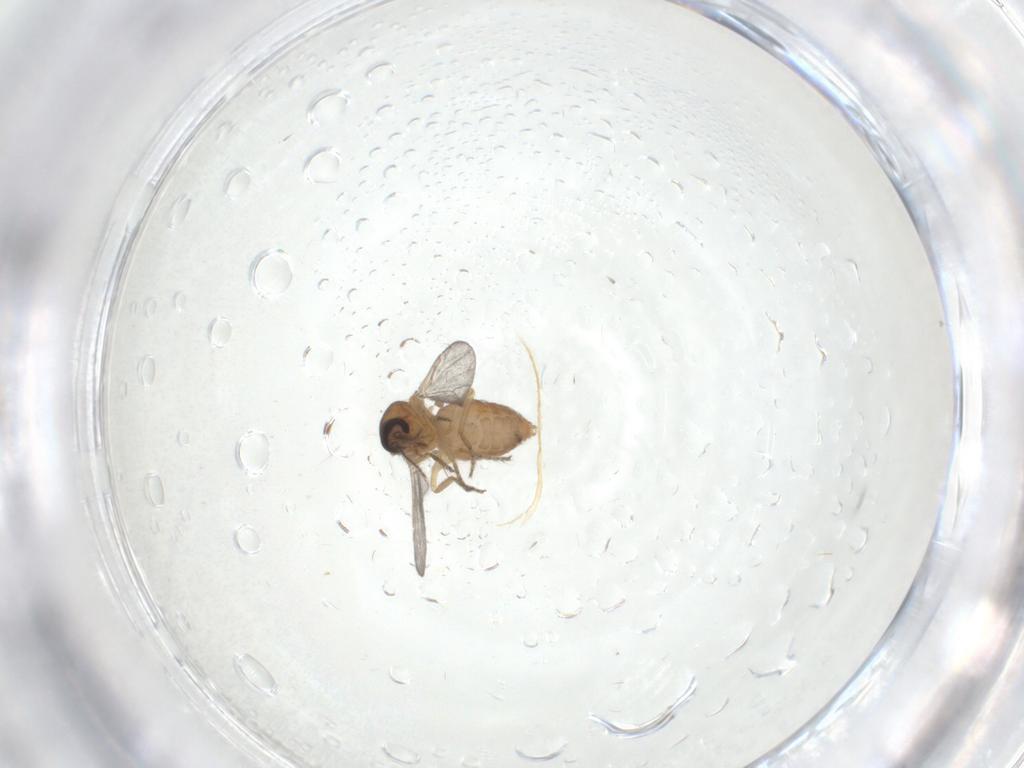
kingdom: Animalia
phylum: Arthropoda
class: Insecta
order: Diptera
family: Ceratopogonidae
